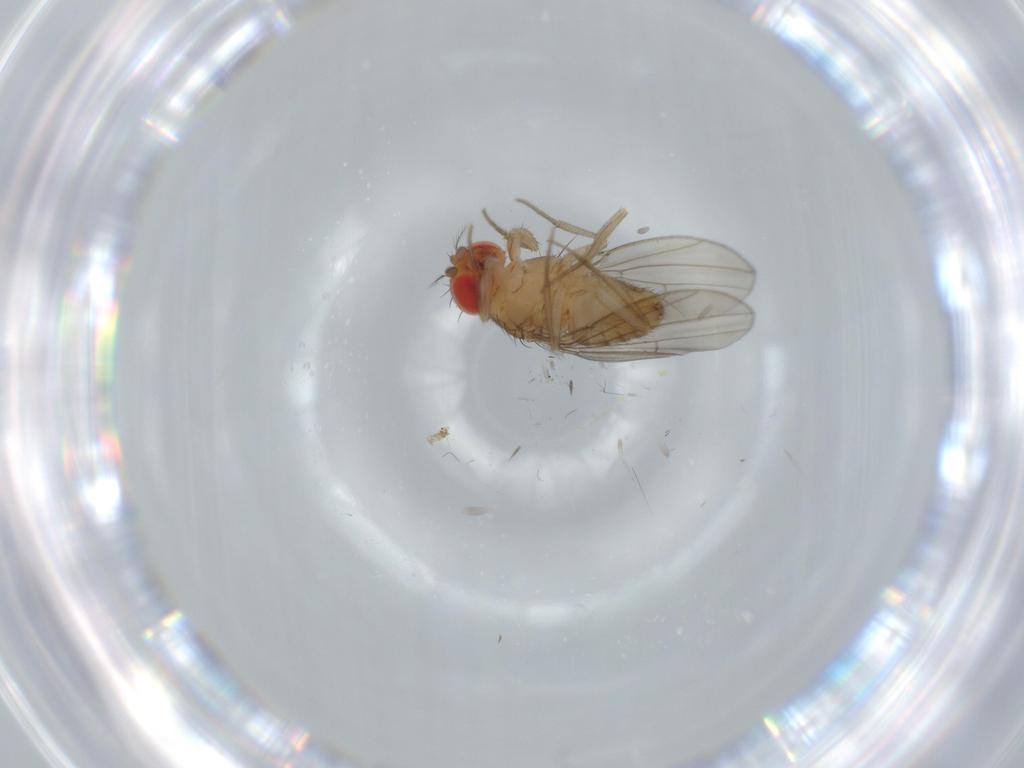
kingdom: Animalia
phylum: Arthropoda
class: Insecta
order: Diptera
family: Drosophilidae
